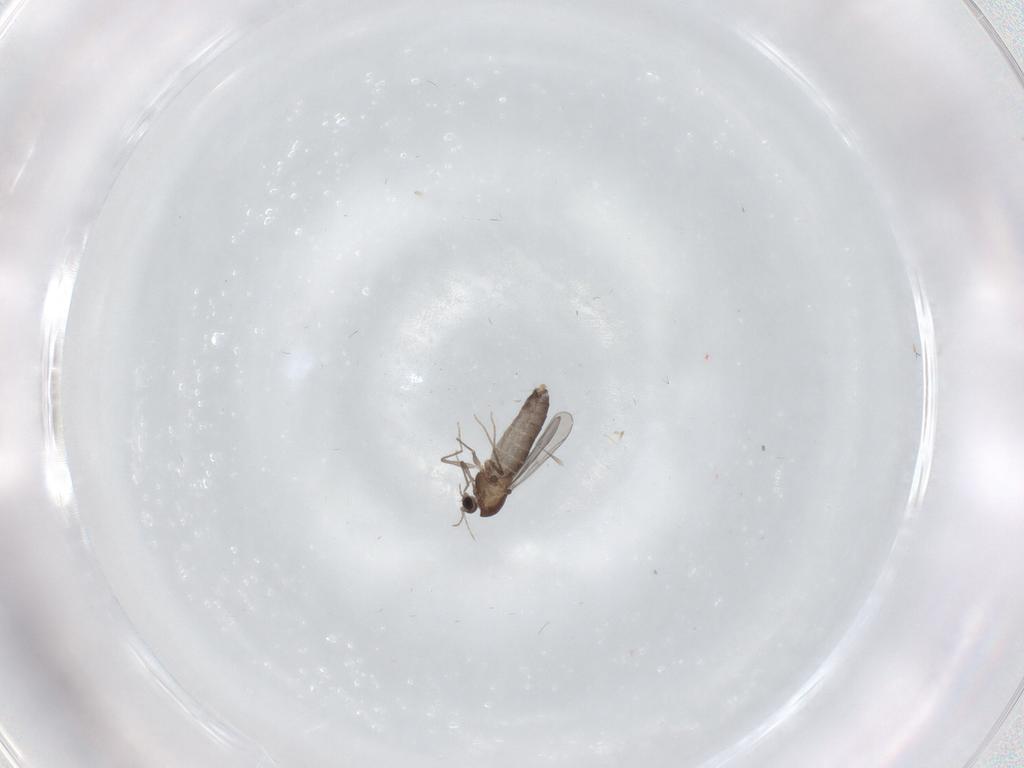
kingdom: Animalia
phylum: Arthropoda
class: Insecta
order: Diptera
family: Chironomidae
